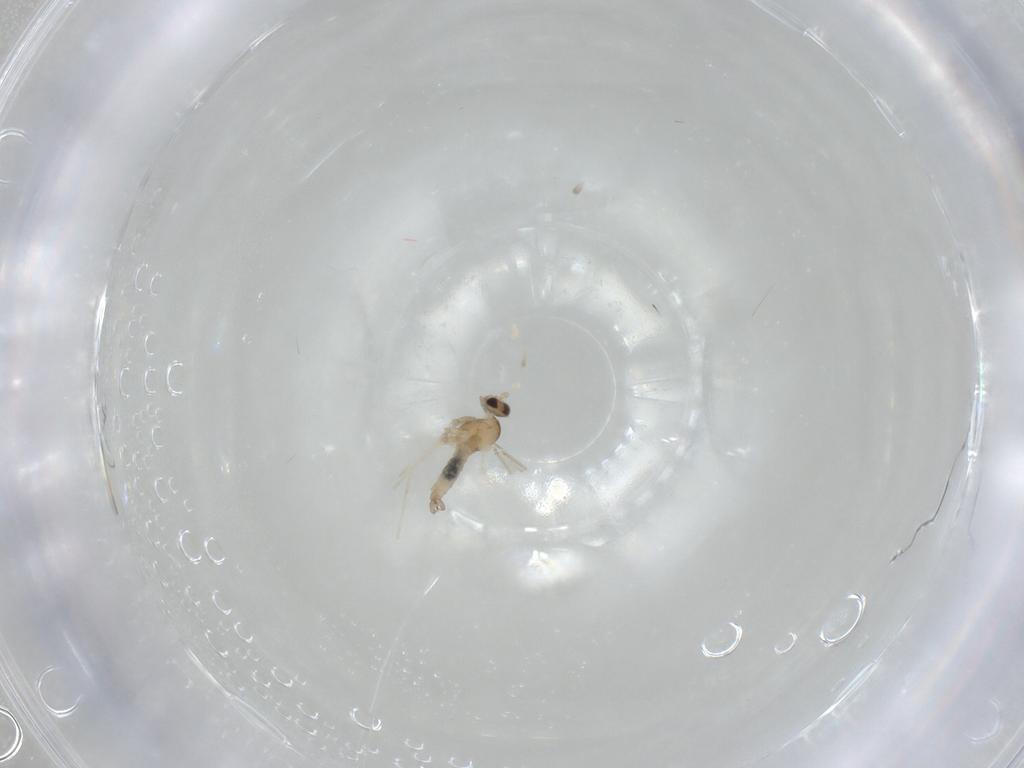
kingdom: Animalia
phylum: Arthropoda
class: Insecta
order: Diptera
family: Cecidomyiidae
